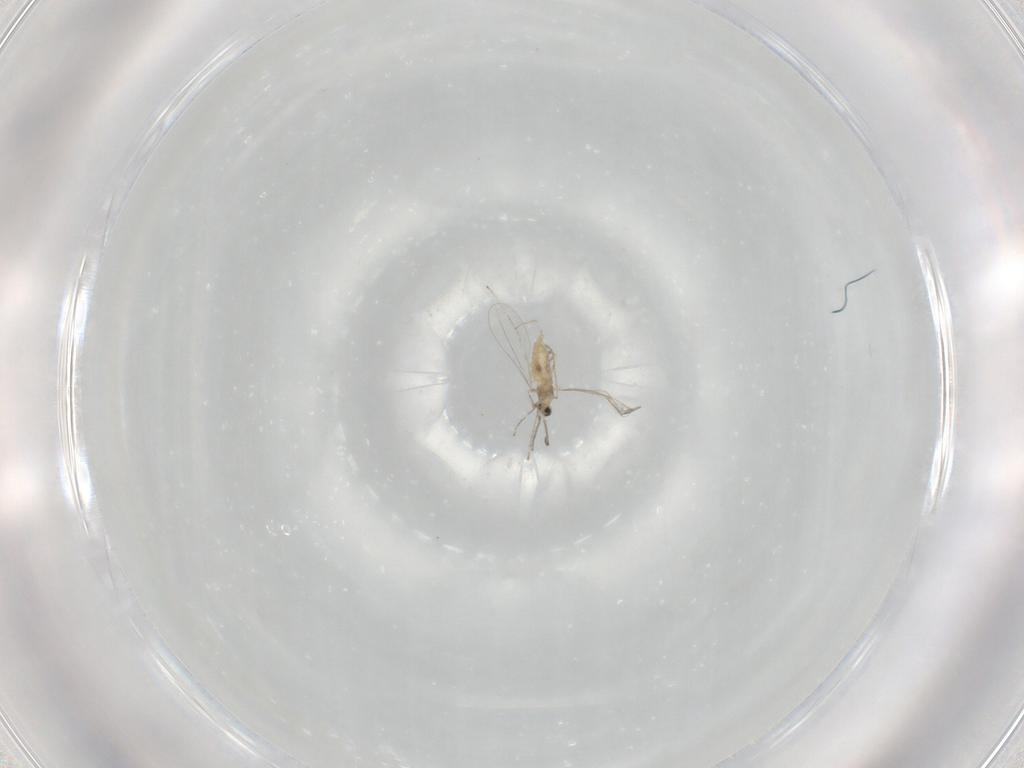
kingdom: Animalia
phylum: Arthropoda
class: Insecta
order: Diptera
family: Cecidomyiidae
